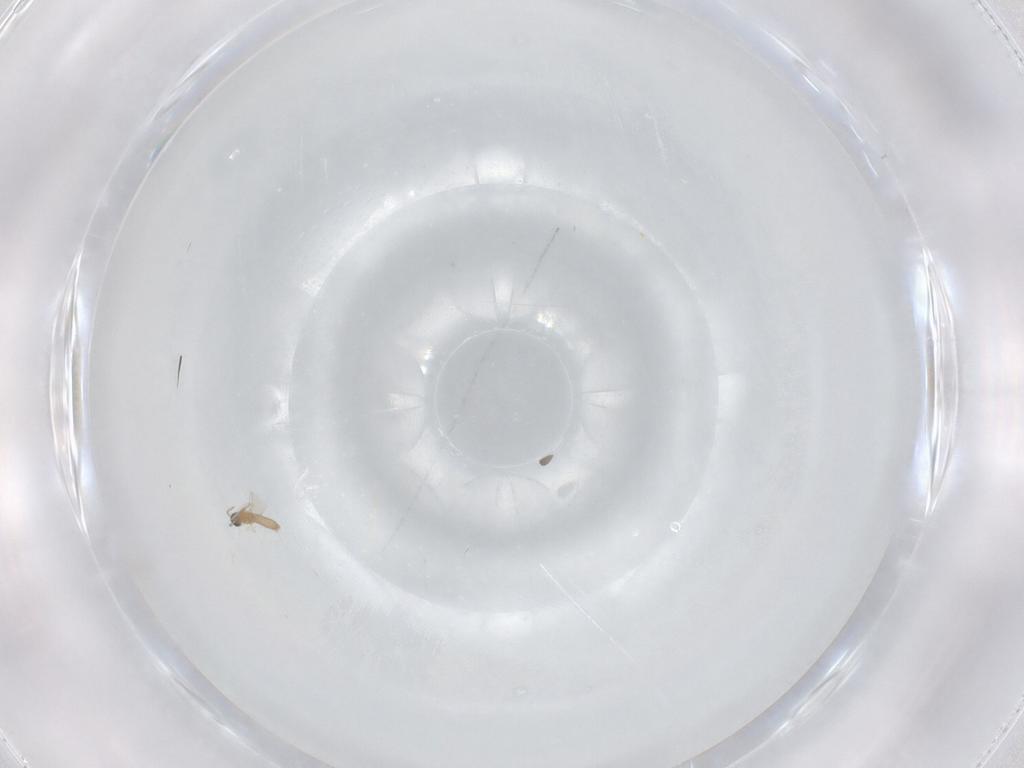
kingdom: Animalia
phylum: Arthropoda
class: Insecta
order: Diptera
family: Cecidomyiidae
